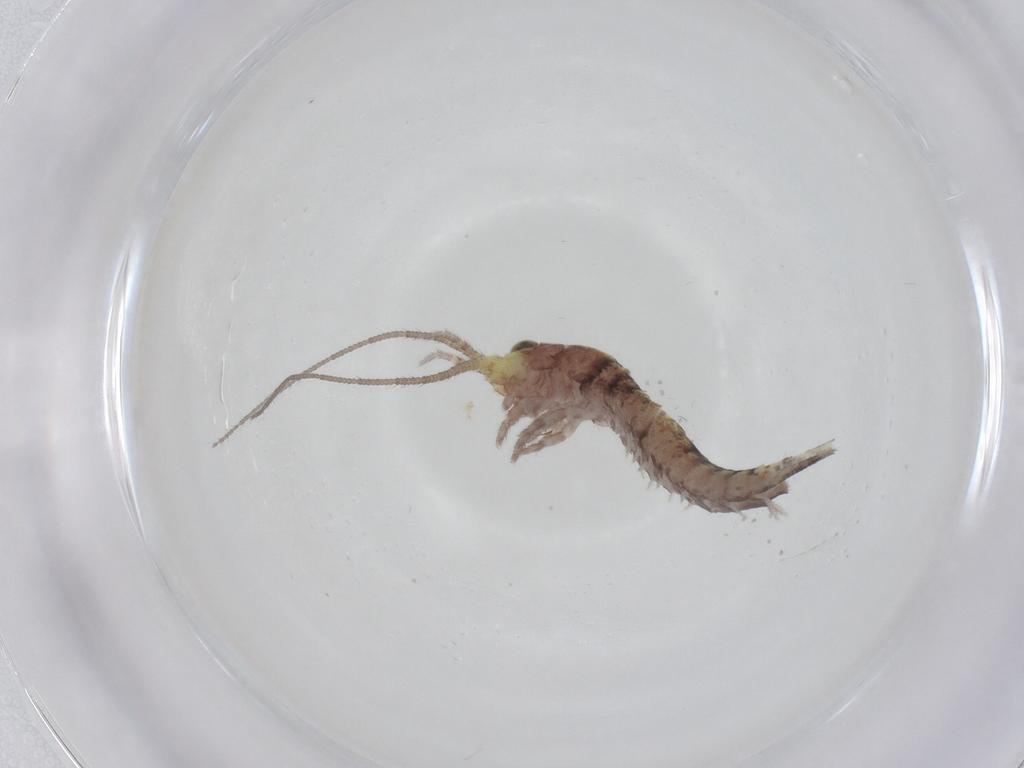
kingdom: Animalia
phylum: Arthropoda
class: Insecta
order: Archaeognatha
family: Machilidae
